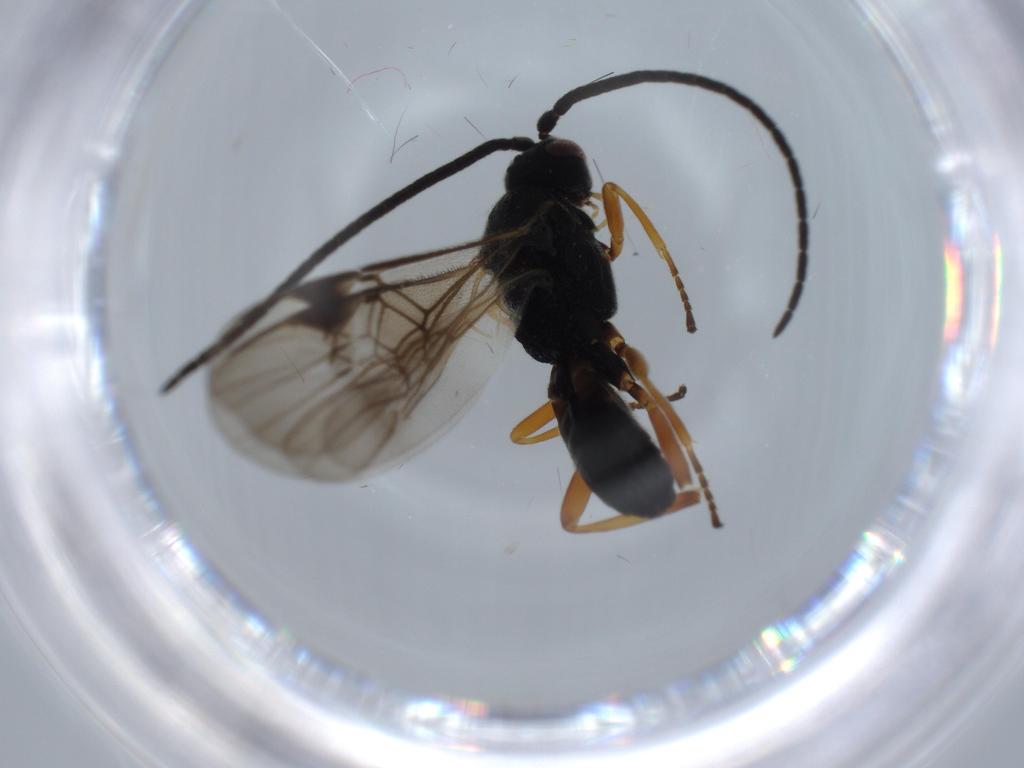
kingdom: Animalia
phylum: Arthropoda
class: Insecta
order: Hymenoptera
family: Braconidae
